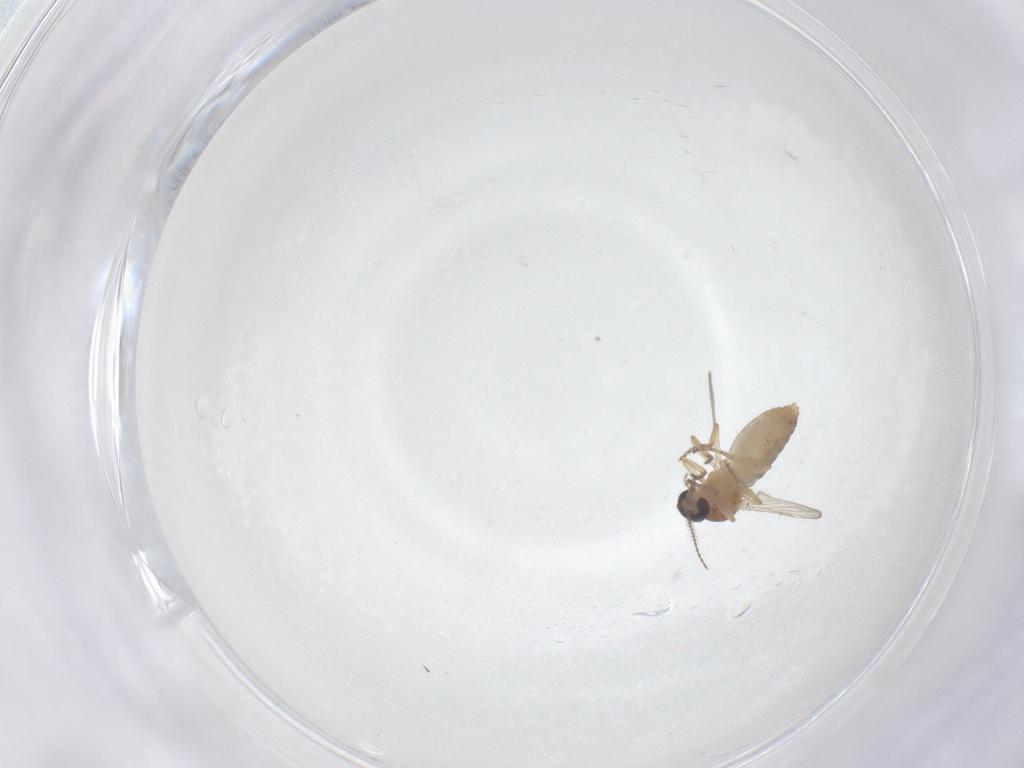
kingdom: Animalia
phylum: Arthropoda
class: Insecta
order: Diptera
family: Ceratopogonidae
